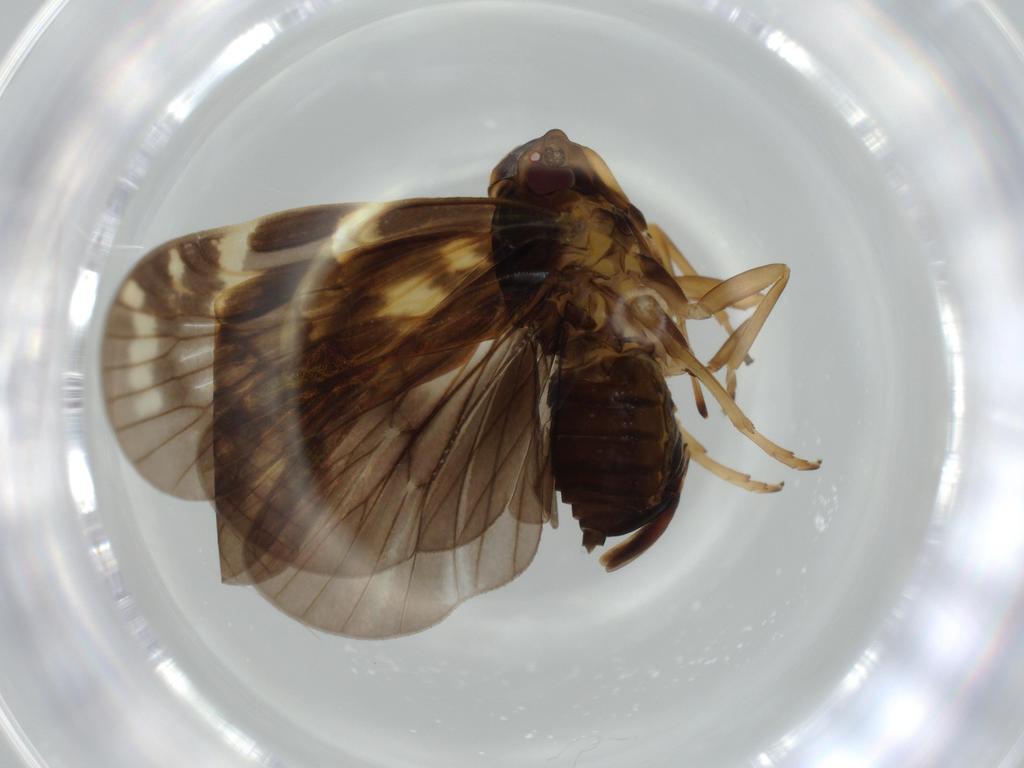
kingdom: Animalia
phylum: Arthropoda
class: Insecta
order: Hemiptera
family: Cixiidae
